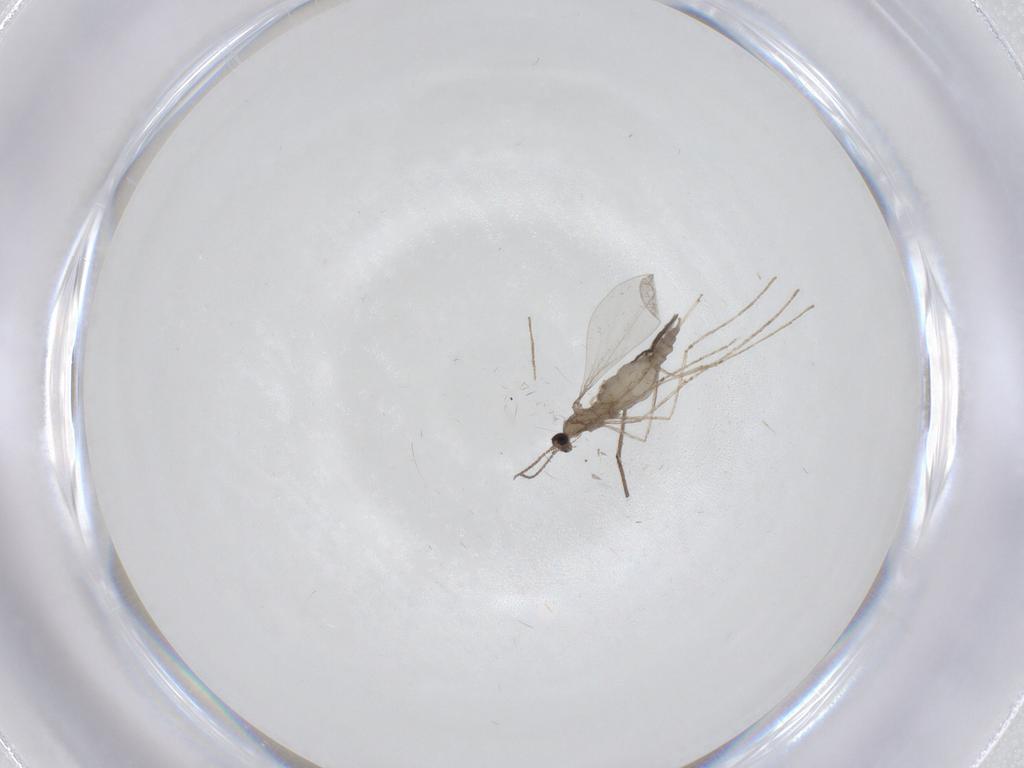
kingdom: Animalia
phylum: Arthropoda
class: Insecta
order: Diptera
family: Chironomidae
